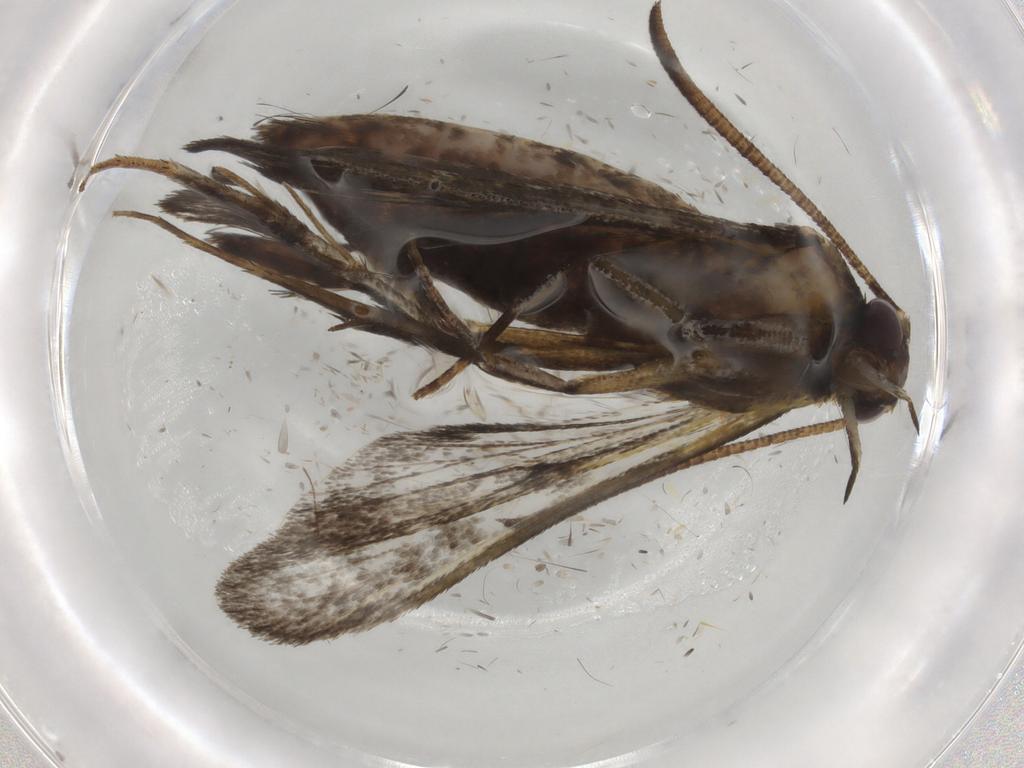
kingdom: Animalia
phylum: Arthropoda
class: Insecta
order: Lepidoptera
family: Sesiidae
